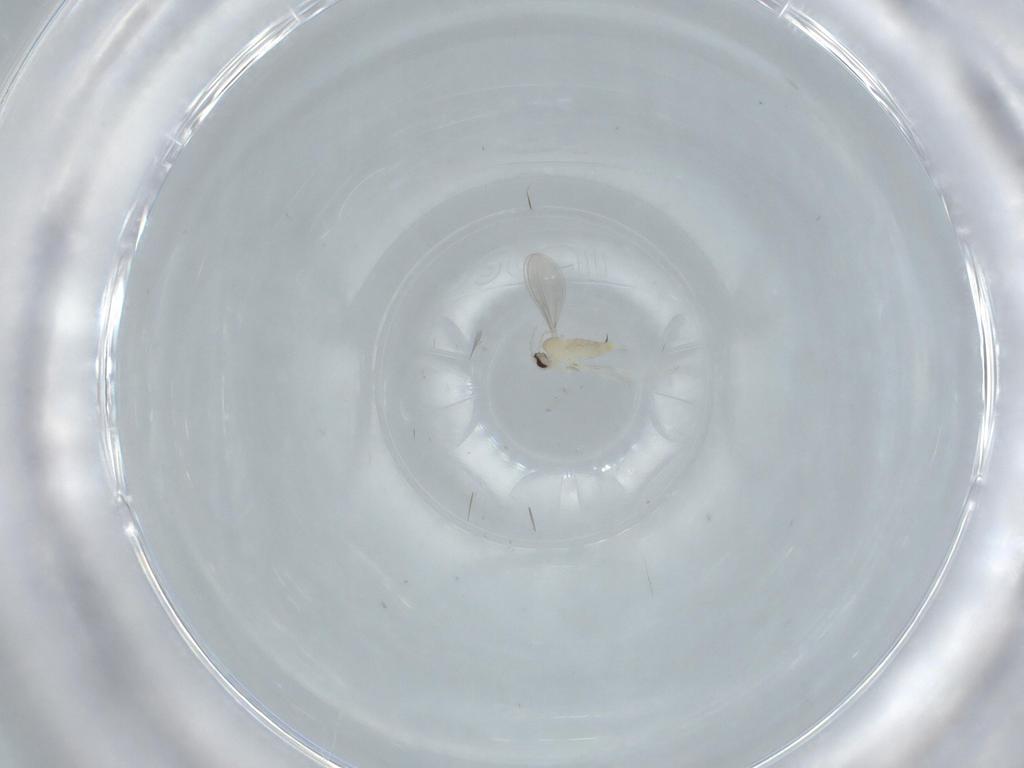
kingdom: Animalia
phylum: Arthropoda
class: Insecta
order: Diptera
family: Cecidomyiidae
